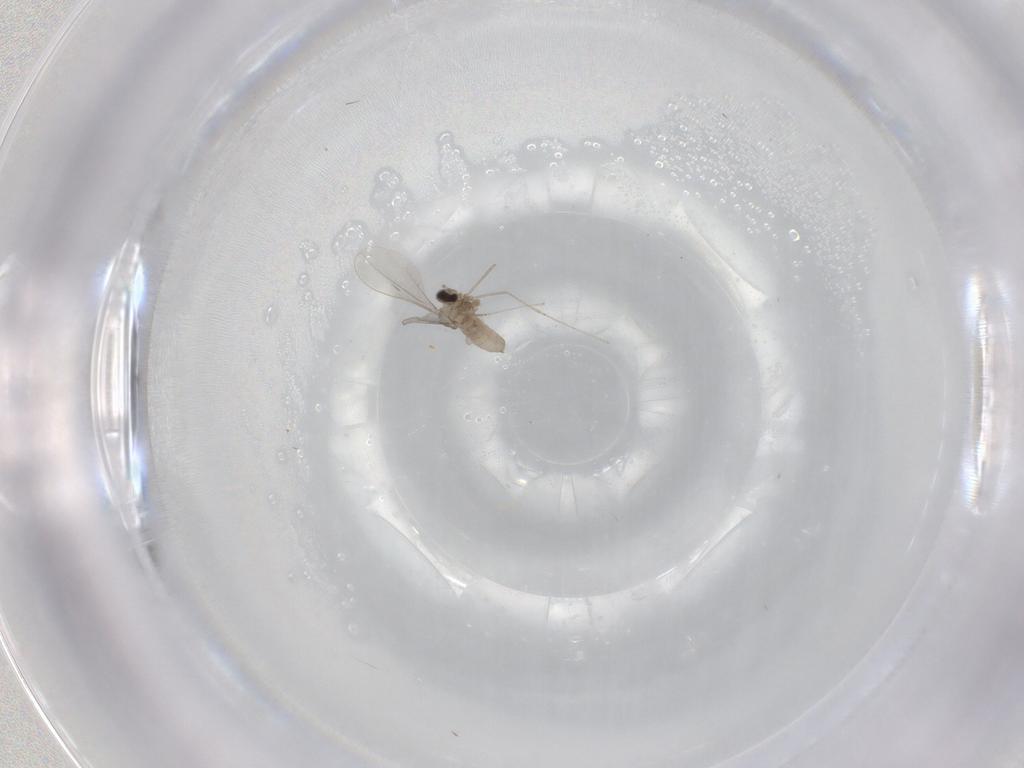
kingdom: Animalia
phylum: Arthropoda
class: Insecta
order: Diptera
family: Cecidomyiidae
